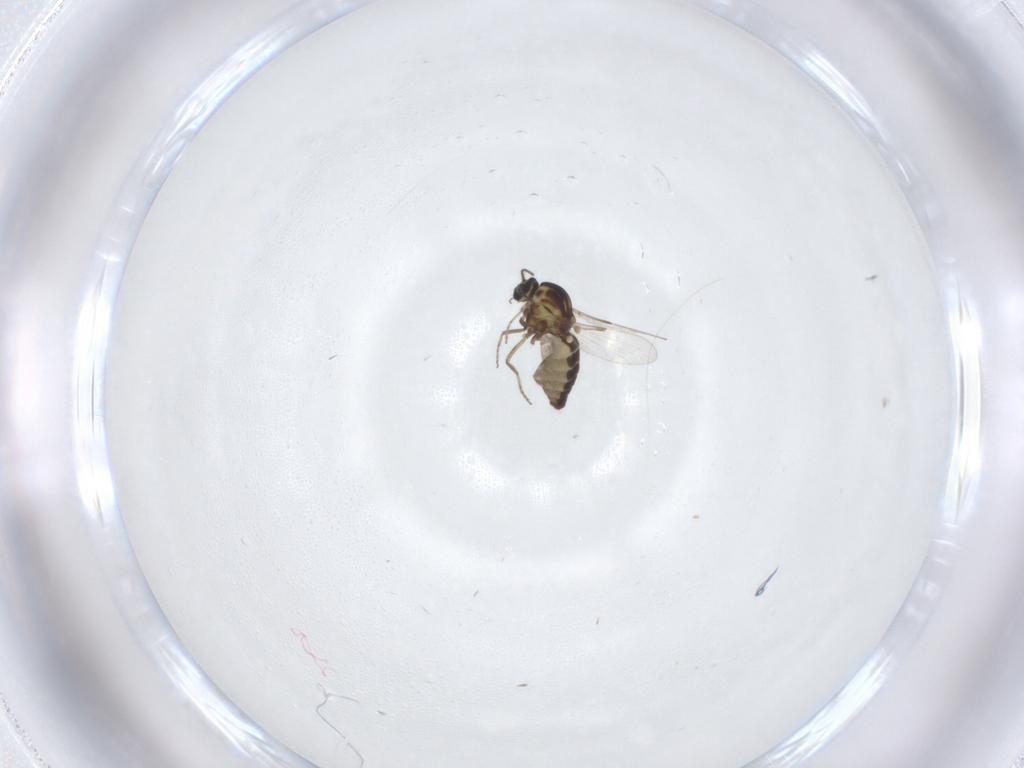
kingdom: Animalia
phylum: Arthropoda
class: Insecta
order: Diptera
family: Ceratopogonidae
